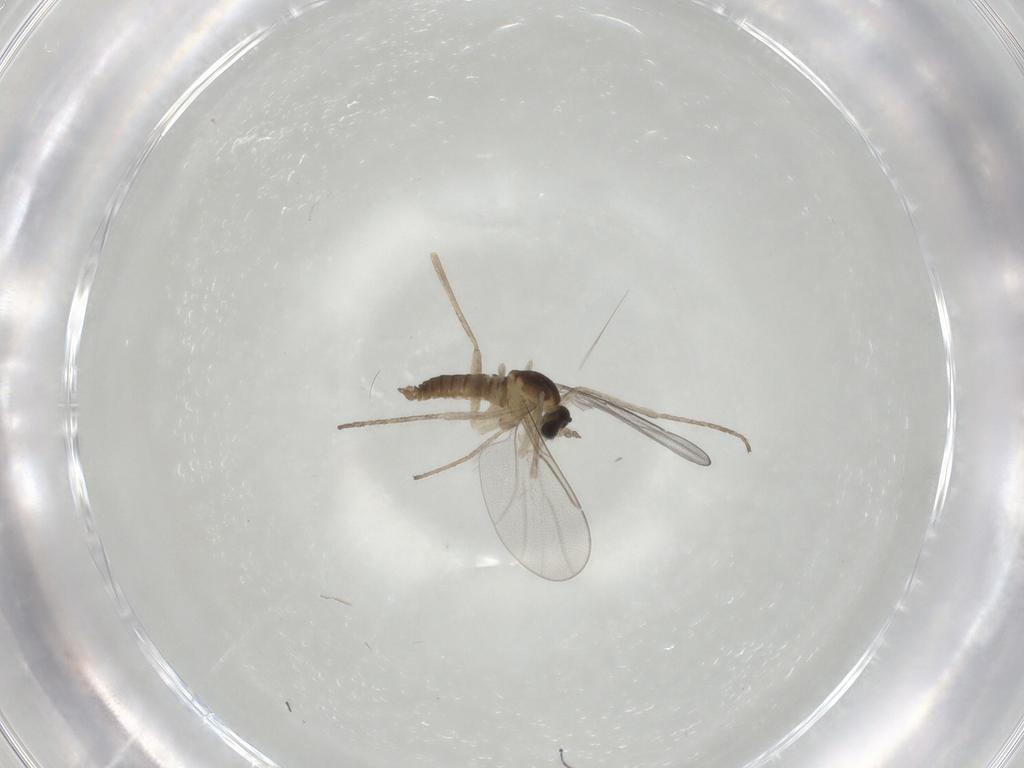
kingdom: Animalia
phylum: Arthropoda
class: Insecta
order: Diptera
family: Cecidomyiidae
